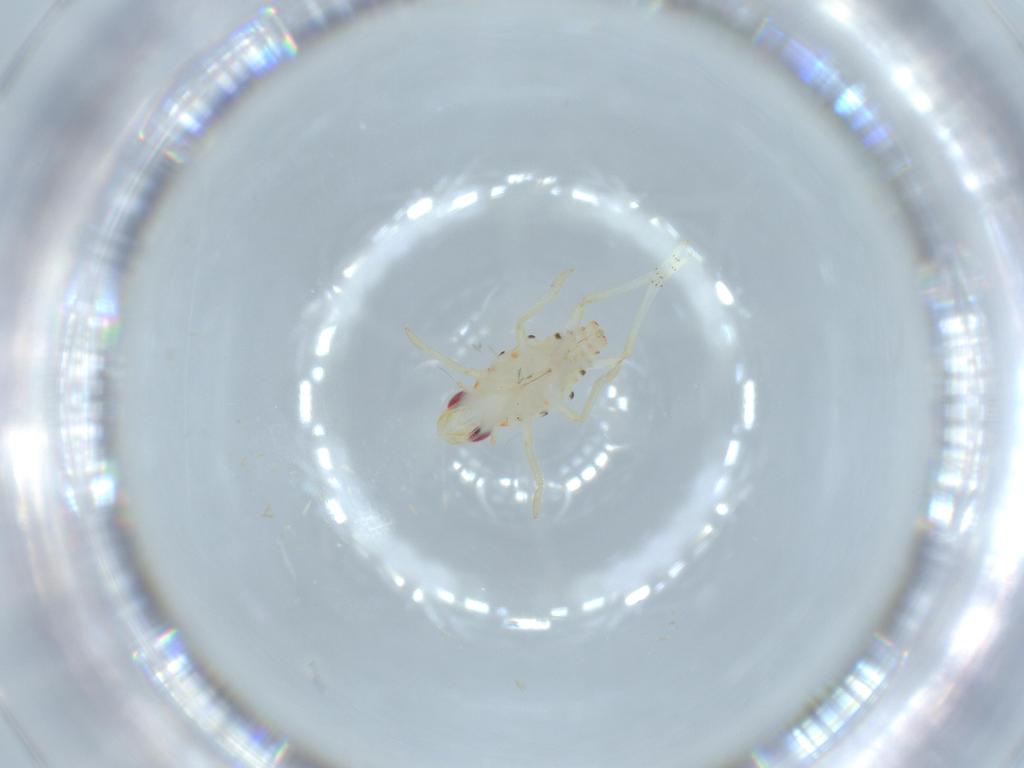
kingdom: Animalia
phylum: Arthropoda
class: Insecta
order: Hemiptera
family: Tropiduchidae
